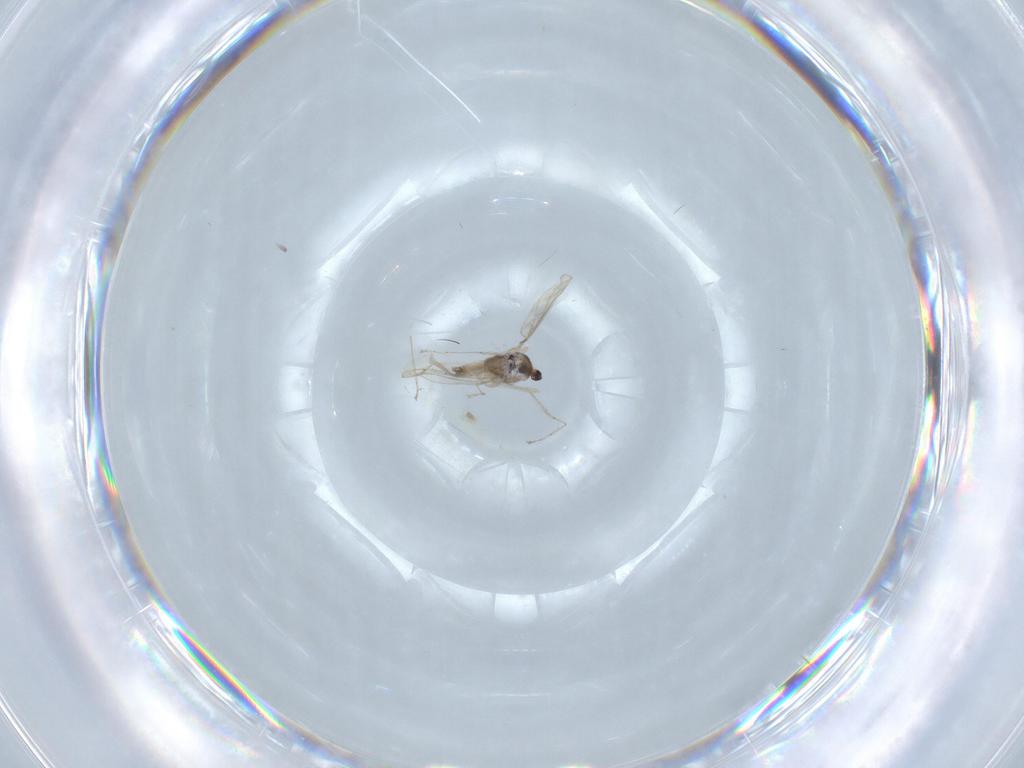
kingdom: Animalia
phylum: Arthropoda
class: Insecta
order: Diptera
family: Cecidomyiidae
